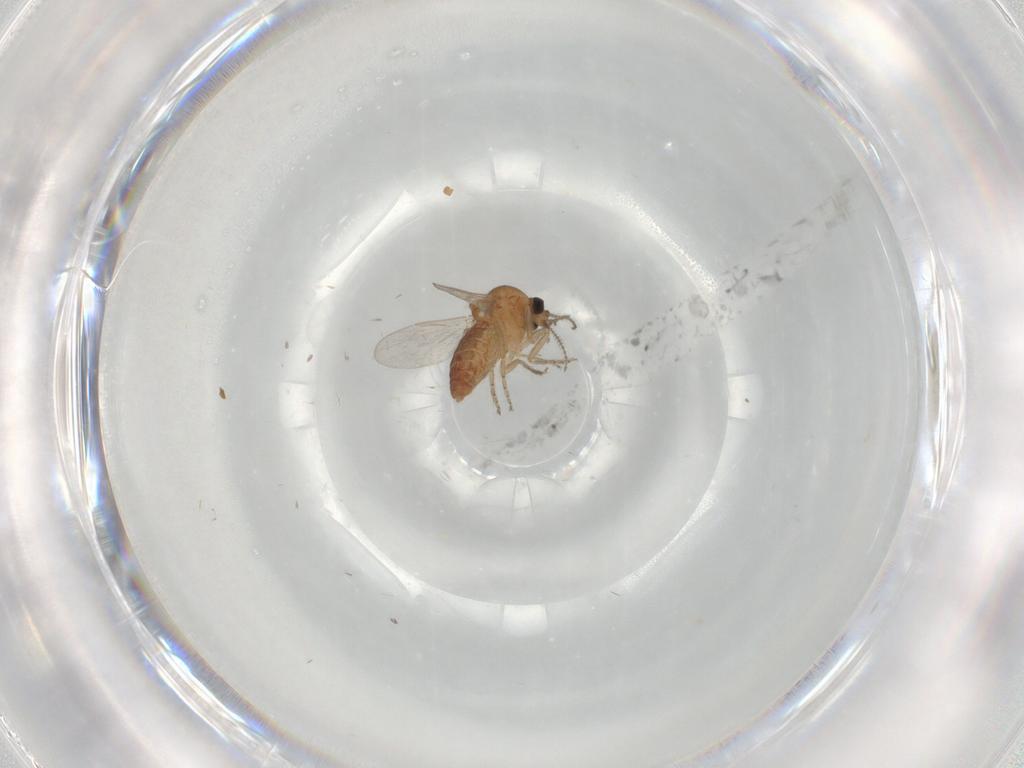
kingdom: Animalia
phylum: Arthropoda
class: Insecta
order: Diptera
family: Ceratopogonidae
